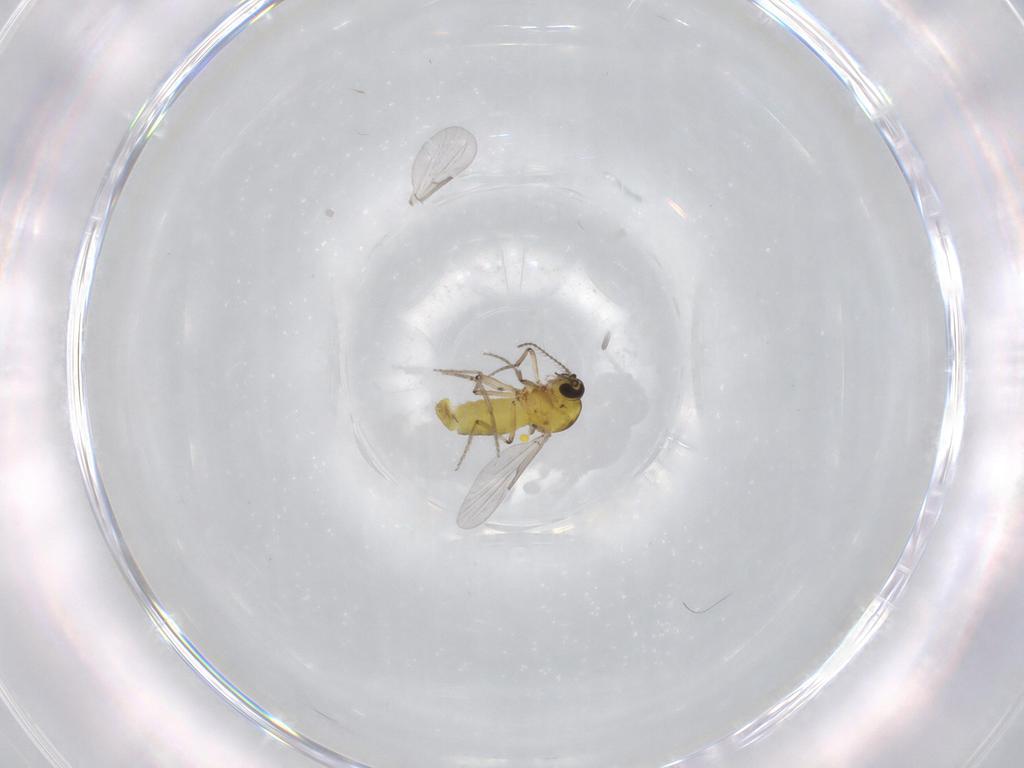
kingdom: Animalia
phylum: Arthropoda
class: Insecta
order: Diptera
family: Ceratopogonidae
